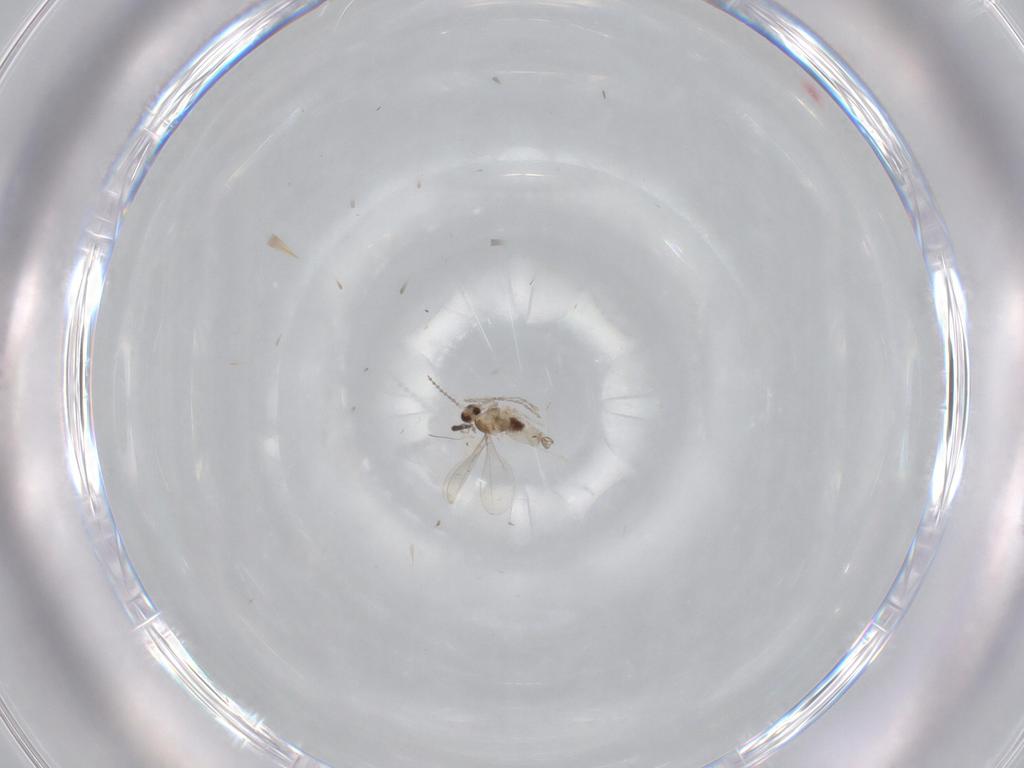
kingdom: Animalia
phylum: Arthropoda
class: Insecta
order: Diptera
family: Cecidomyiidae
